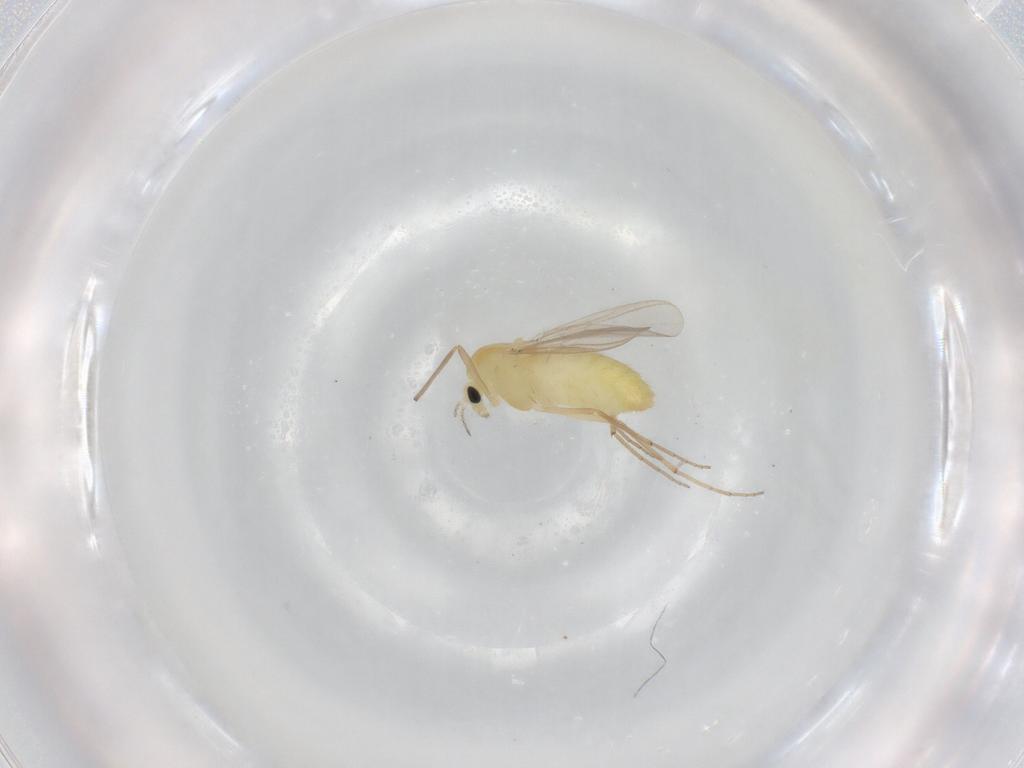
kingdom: Animalia
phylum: Arthropoda
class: Insecta
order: Diptera
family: Chironomidae
